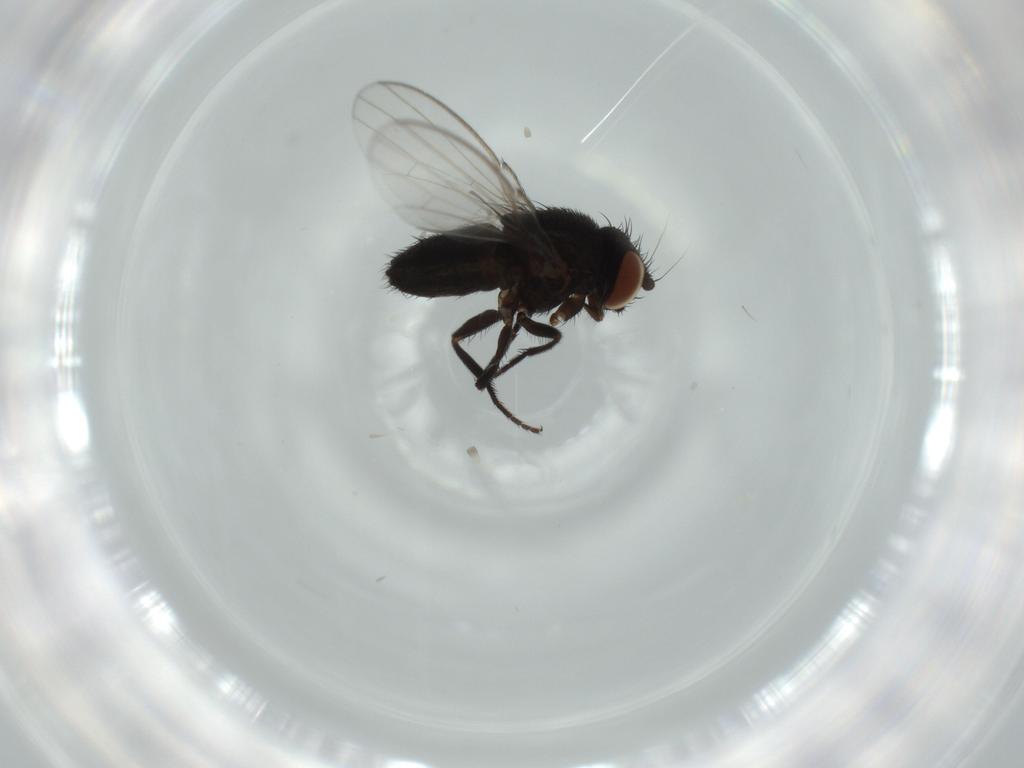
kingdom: Animalia
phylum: Arthropoda
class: Insecta
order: Diptera
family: Milichiidae
